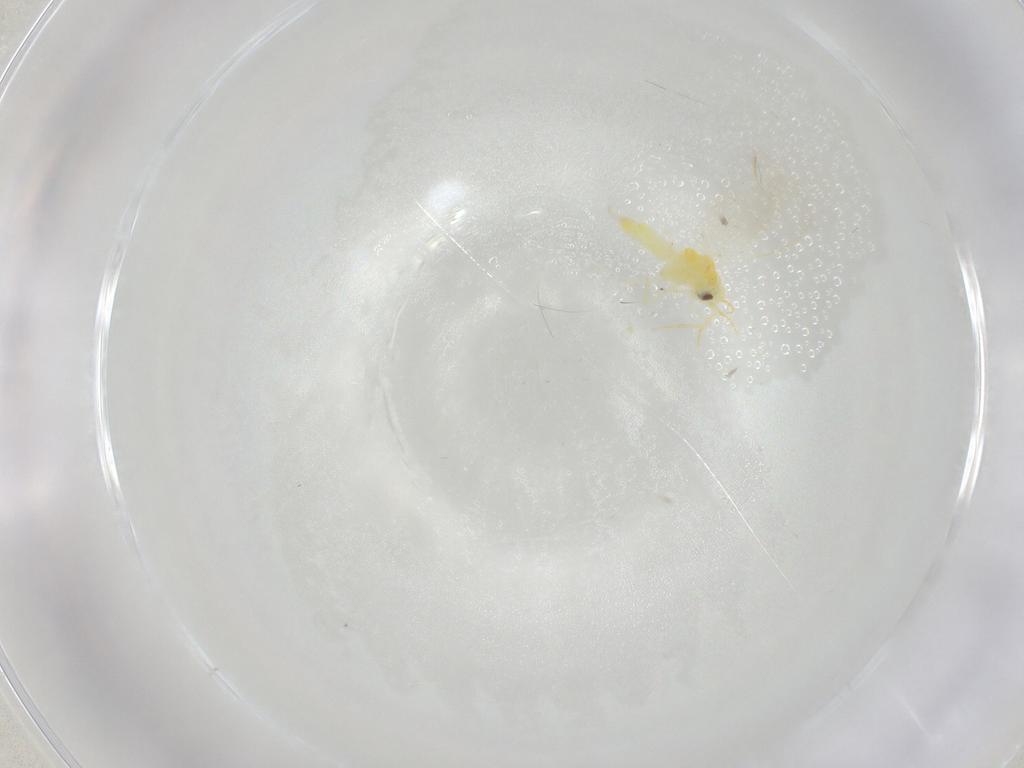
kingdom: Animalia
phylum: Arthropoda
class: Insecta
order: Hemiptera
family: Aleyrodidae
